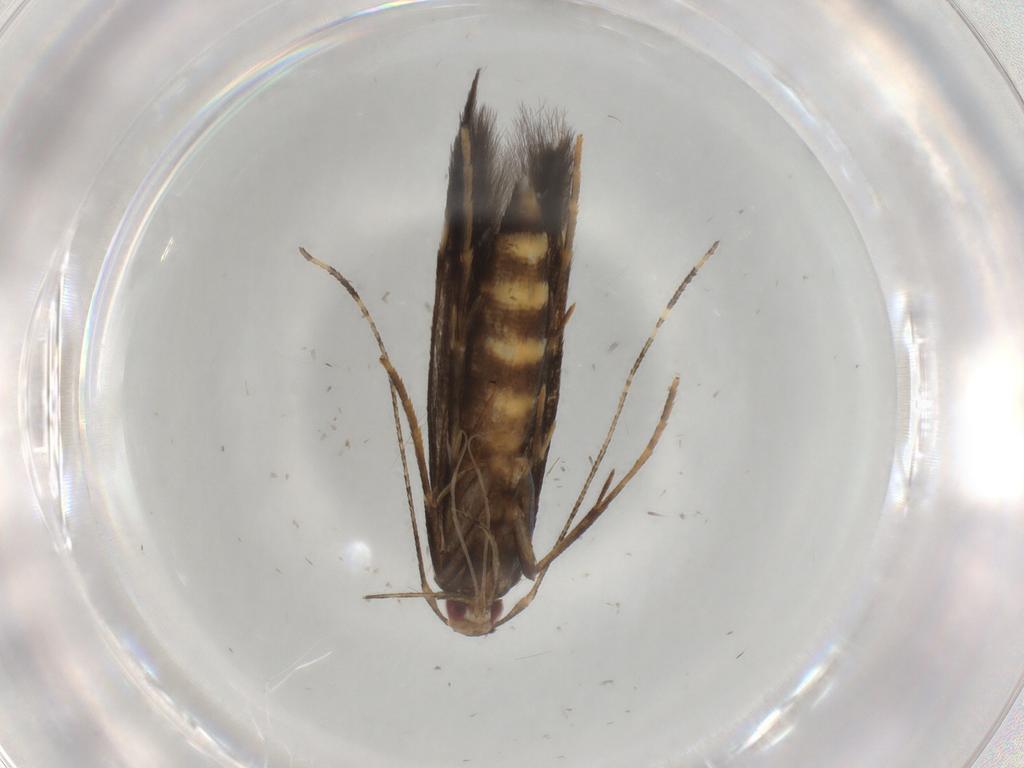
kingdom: Animalia
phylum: Arthropoda
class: Insecta
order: Lepidoptera
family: Cosmopterigidae
